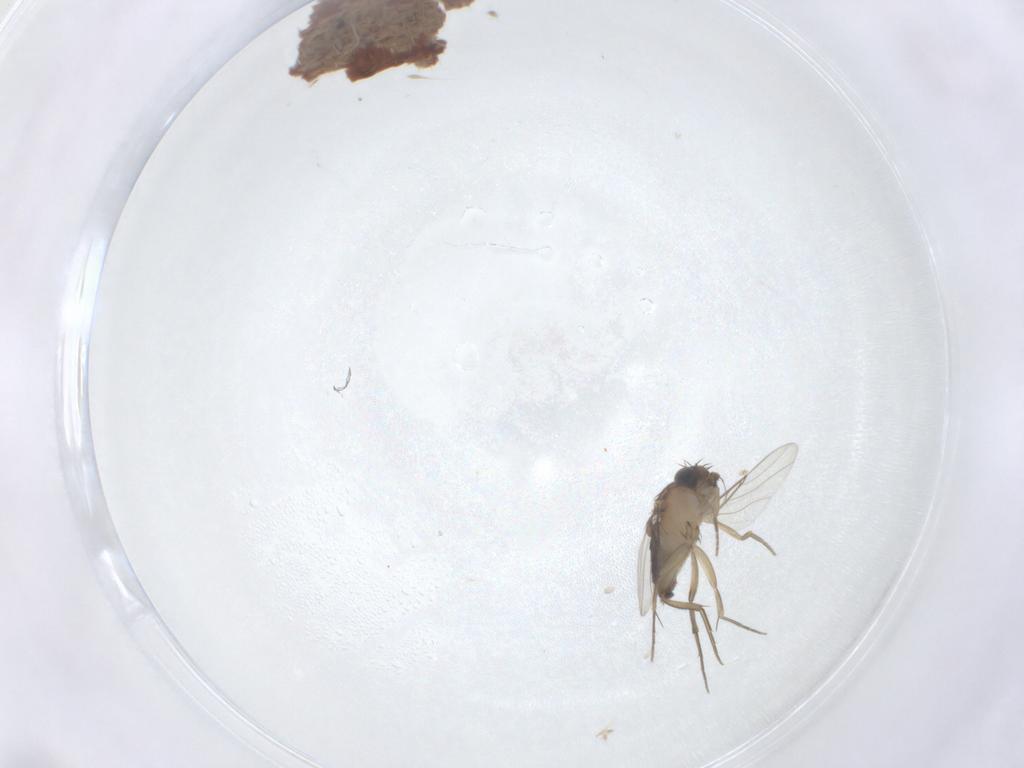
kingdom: Animalia
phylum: Arthropoda
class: Insecta
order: Diptera
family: Phoridae
